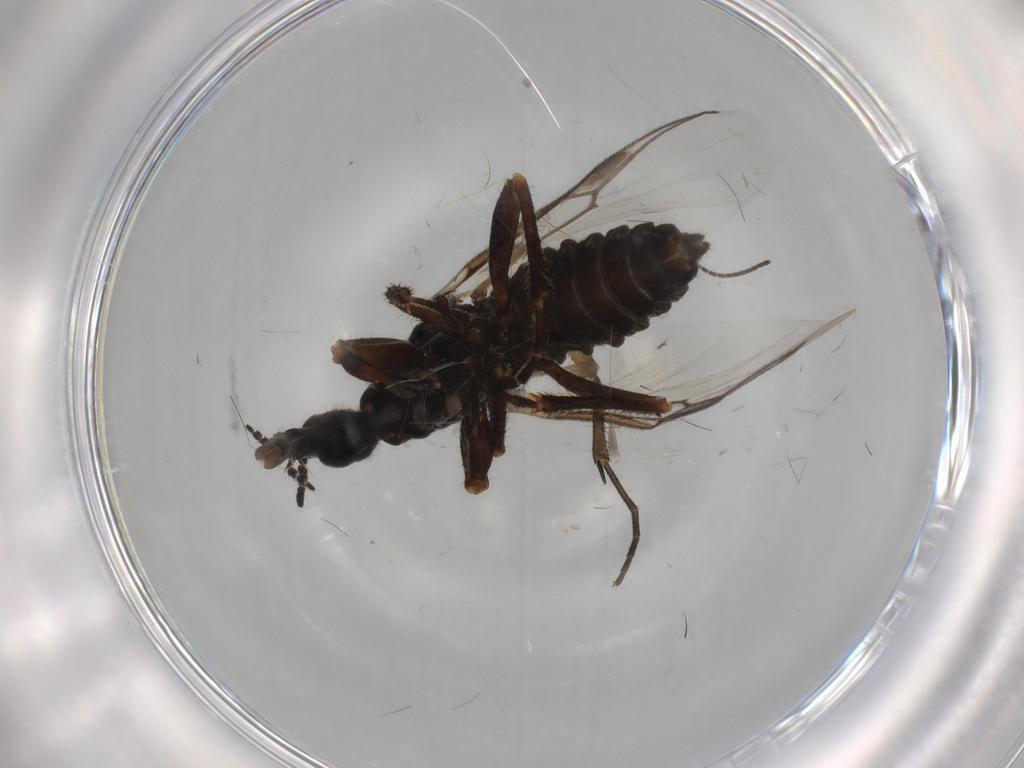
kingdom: Animalia
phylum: Arthropoda
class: Insecta
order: Diptera
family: Bibionidae
